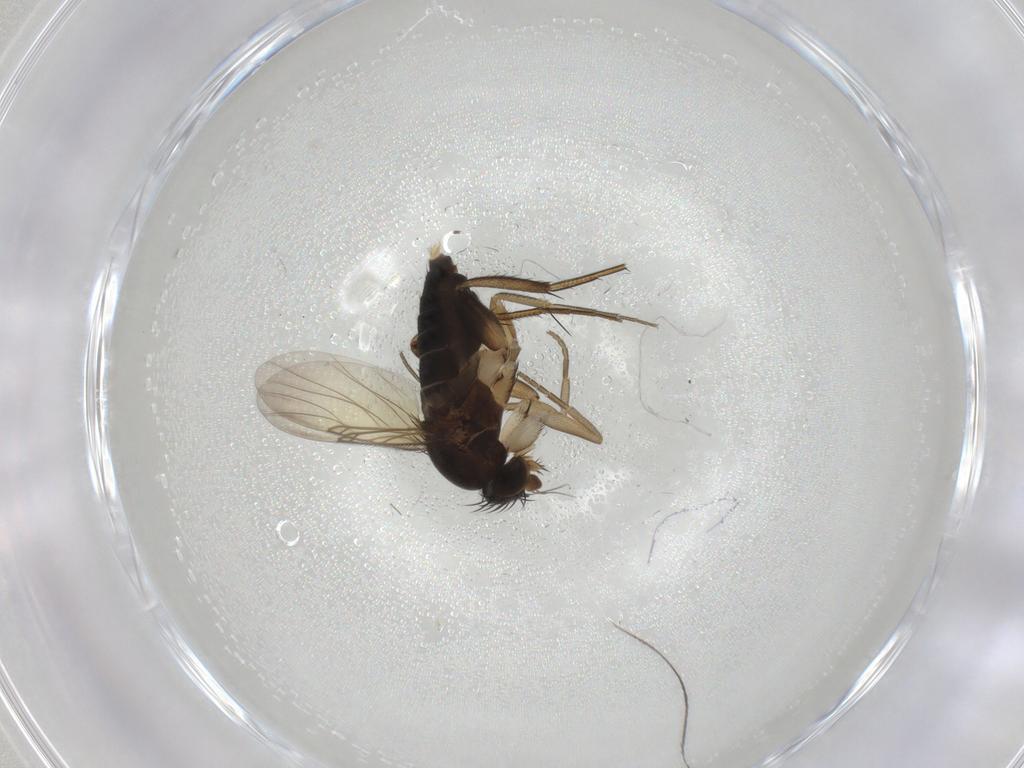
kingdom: Animalia
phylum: Arthropoda
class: Insecta
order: Diptera
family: Phoridae
